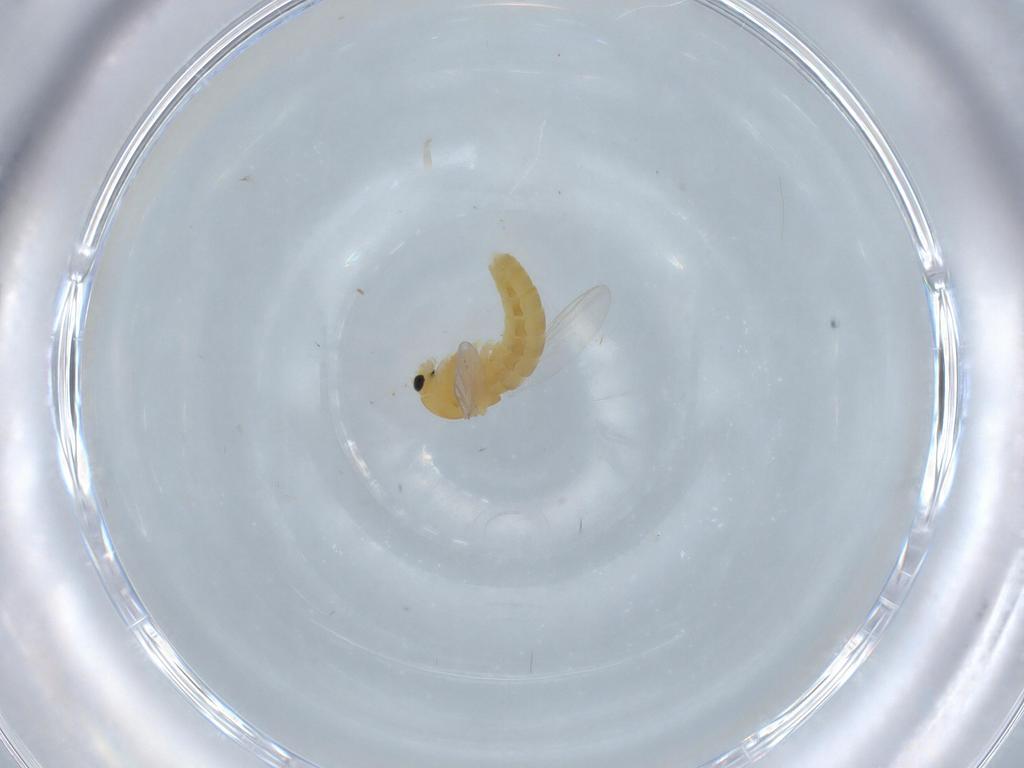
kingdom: Animalia
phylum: Arthropoda
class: Insecta
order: Diptera
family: Chironomidae
